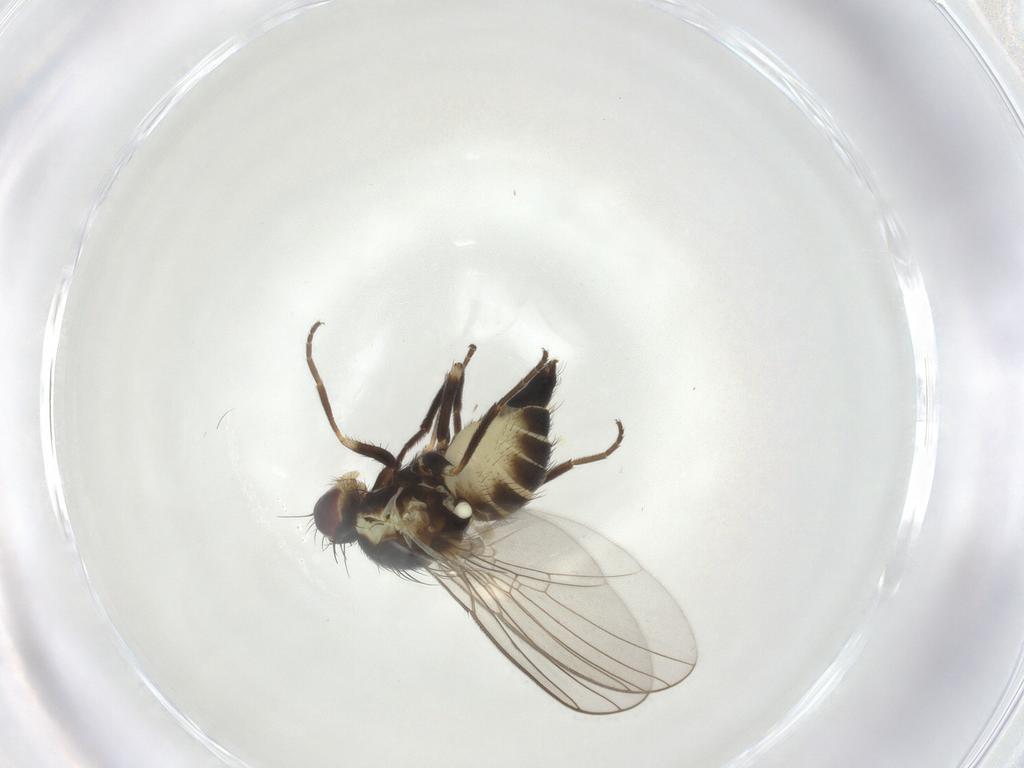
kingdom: Animalia
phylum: Arthropoda
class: Insecta
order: Diptera
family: Agromyzidae
